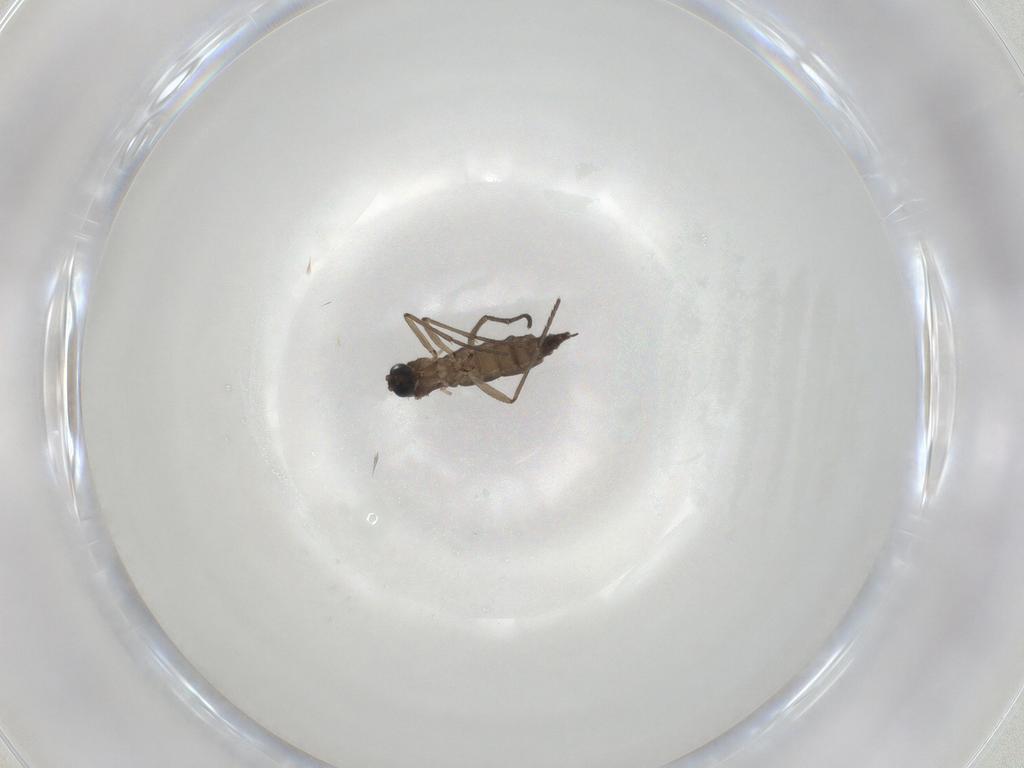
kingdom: Animalia
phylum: Arthropoda
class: Insecta
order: Diptera
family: Sciaridae
